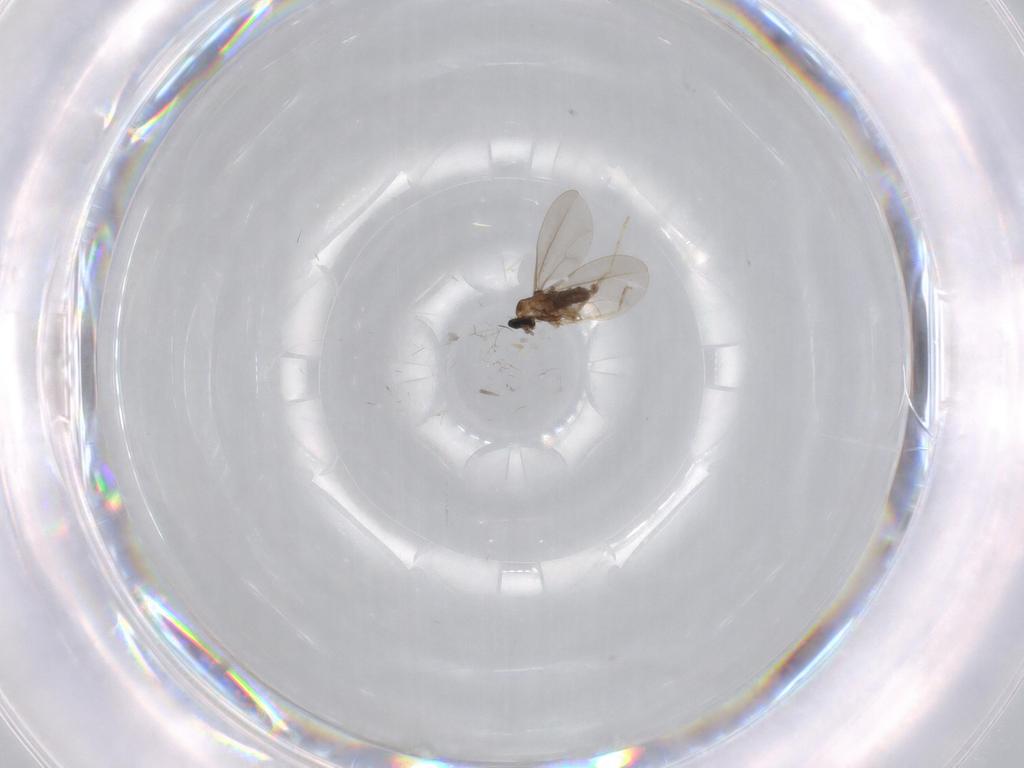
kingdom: Animalia
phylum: Arthropoda
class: Insecta
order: Diptera
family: Cecidomyiidae
